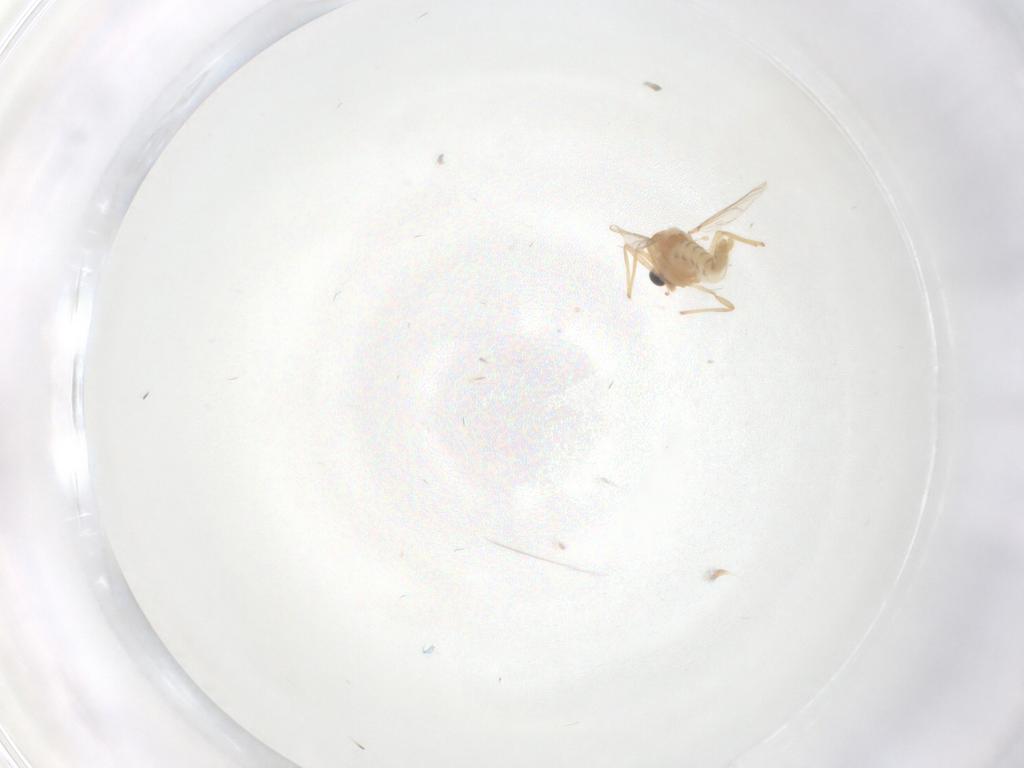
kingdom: Animalia
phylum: Arthropoda
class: Insecta
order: Diptera
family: Chironomidae
